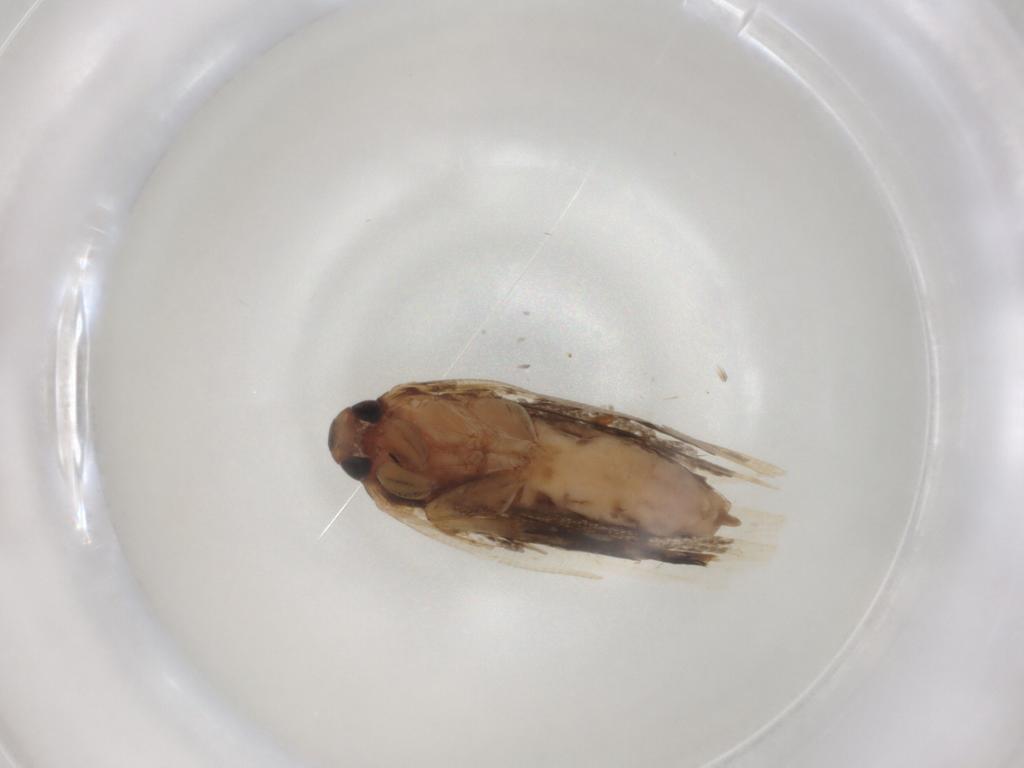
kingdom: Animalia
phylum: Arthropoda
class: Insecta
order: Lepidoptera
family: Cosmopterigidae
